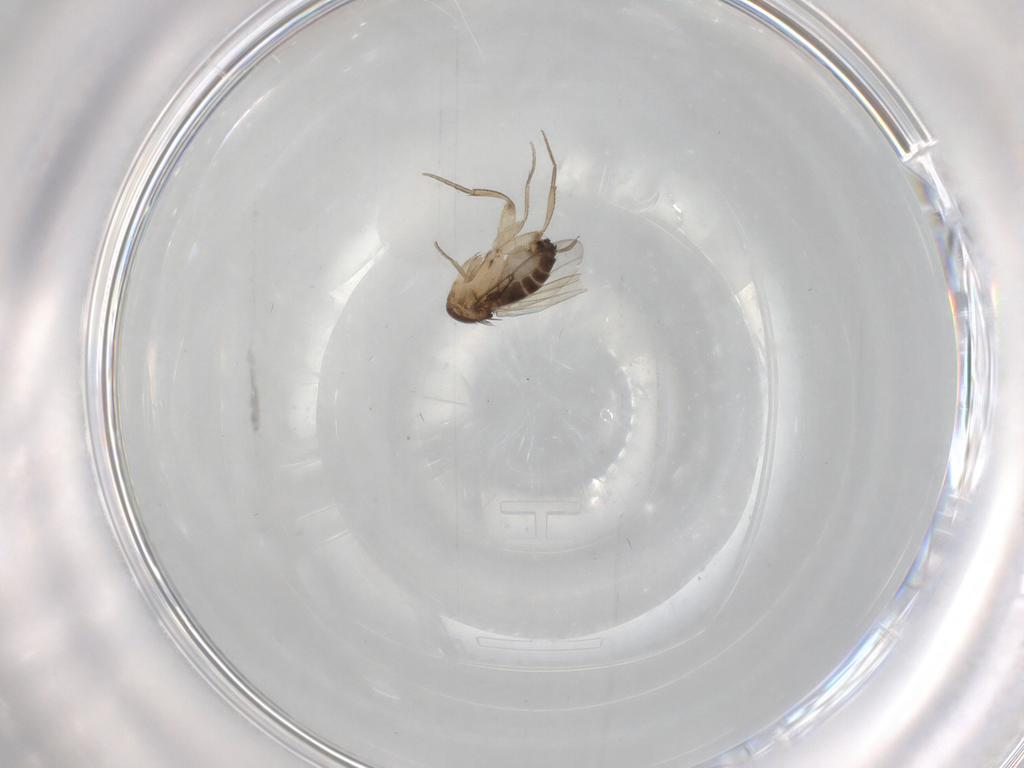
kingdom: Animalia
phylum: Arthropoda
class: Insecta
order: Diptera
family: Phoridae
